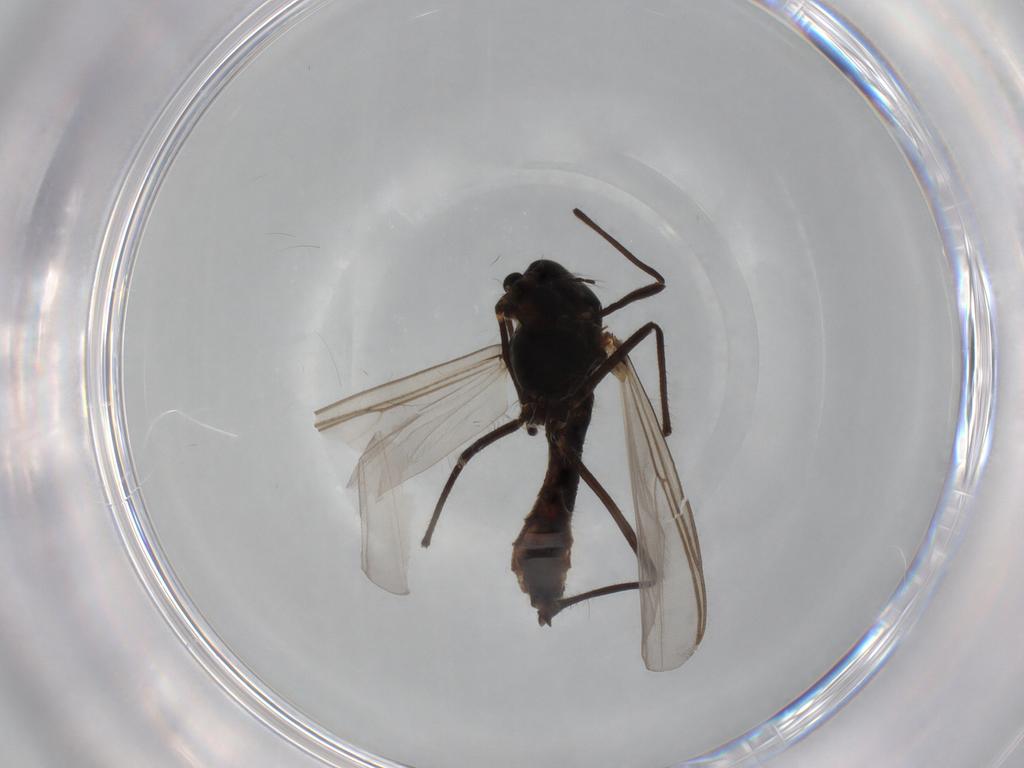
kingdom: Animalia
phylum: Arthropoda
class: Insecta
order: Diptera
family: Chironomidae
